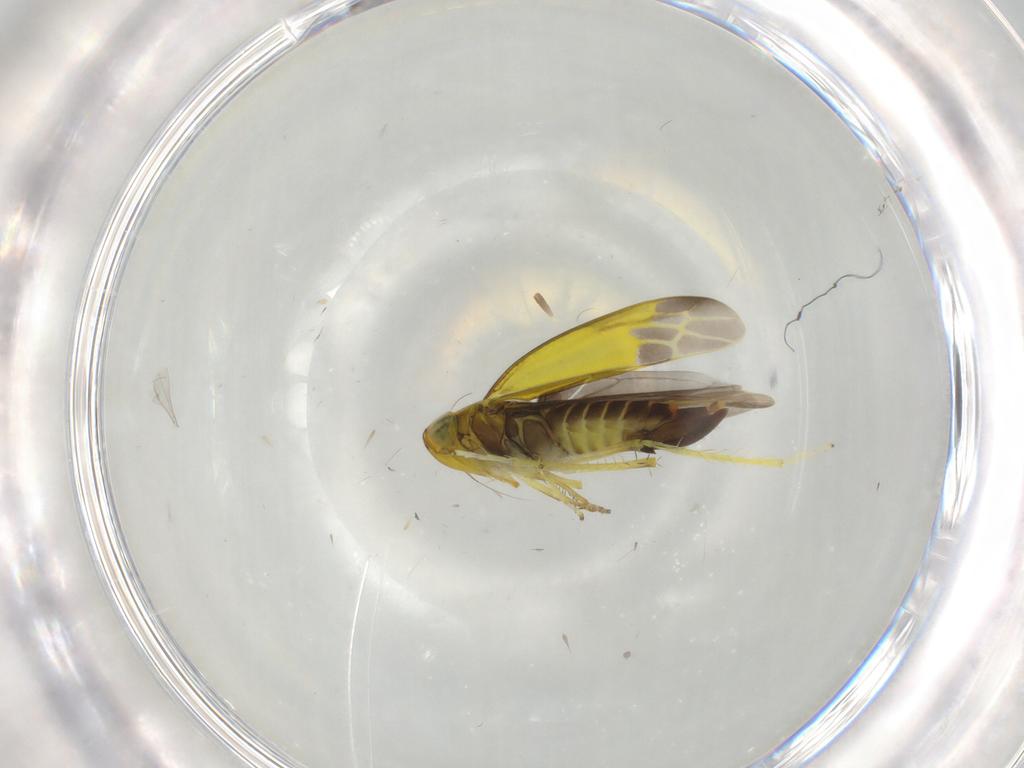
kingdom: Animalia
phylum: Arthropoda
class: Insecta
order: Hemiptera
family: Cicadellidae
